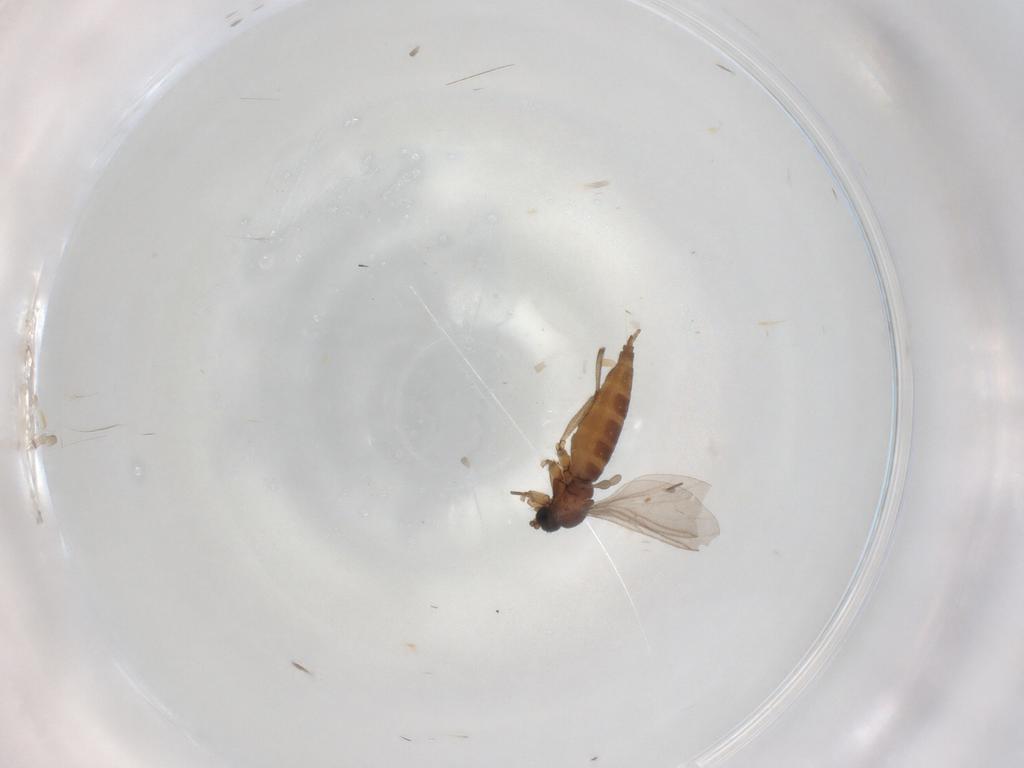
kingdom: Animalia
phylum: Arthropoda
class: Insecta
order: Diptera
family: Sciaridae
